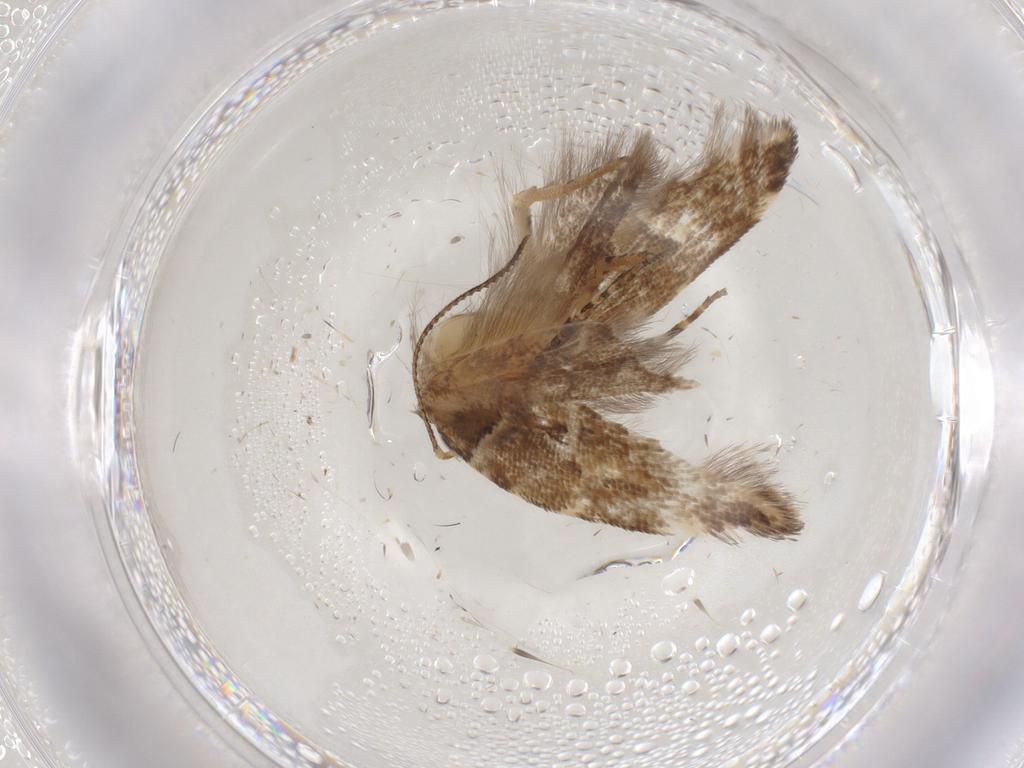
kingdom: Animalia
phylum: Arthropoda
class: Insecta
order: Lepidoptera
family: Gelechiidae
